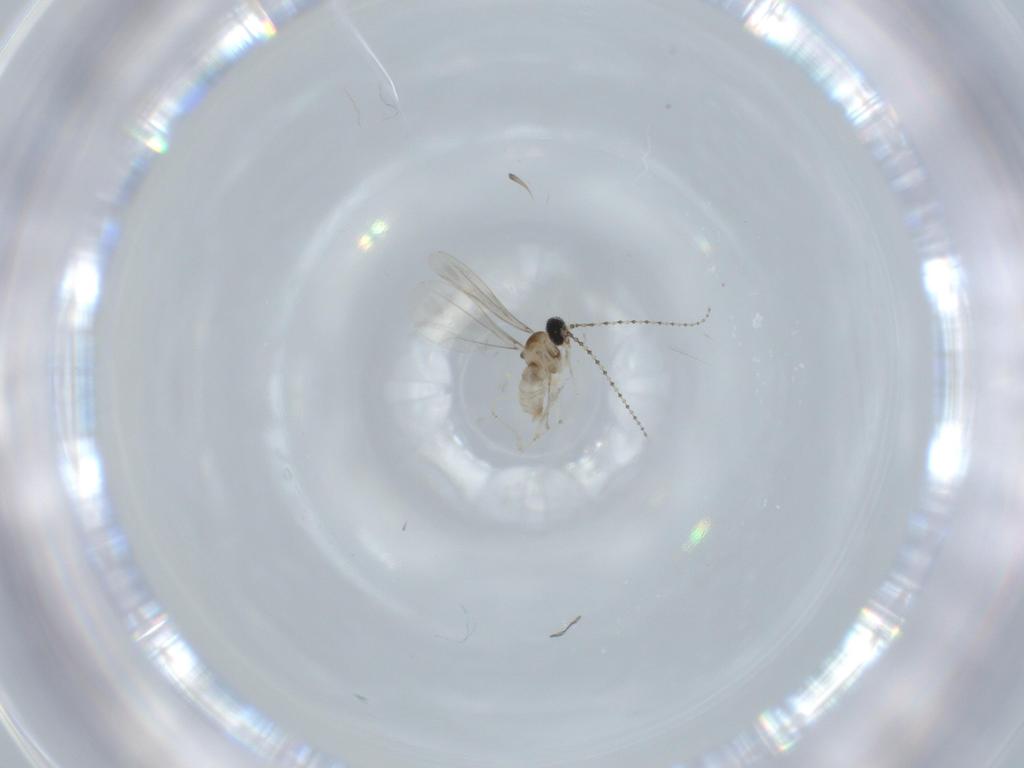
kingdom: Animalia
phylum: Arthropoda
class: Insecta
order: Diptera
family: Cecidomyiidae
